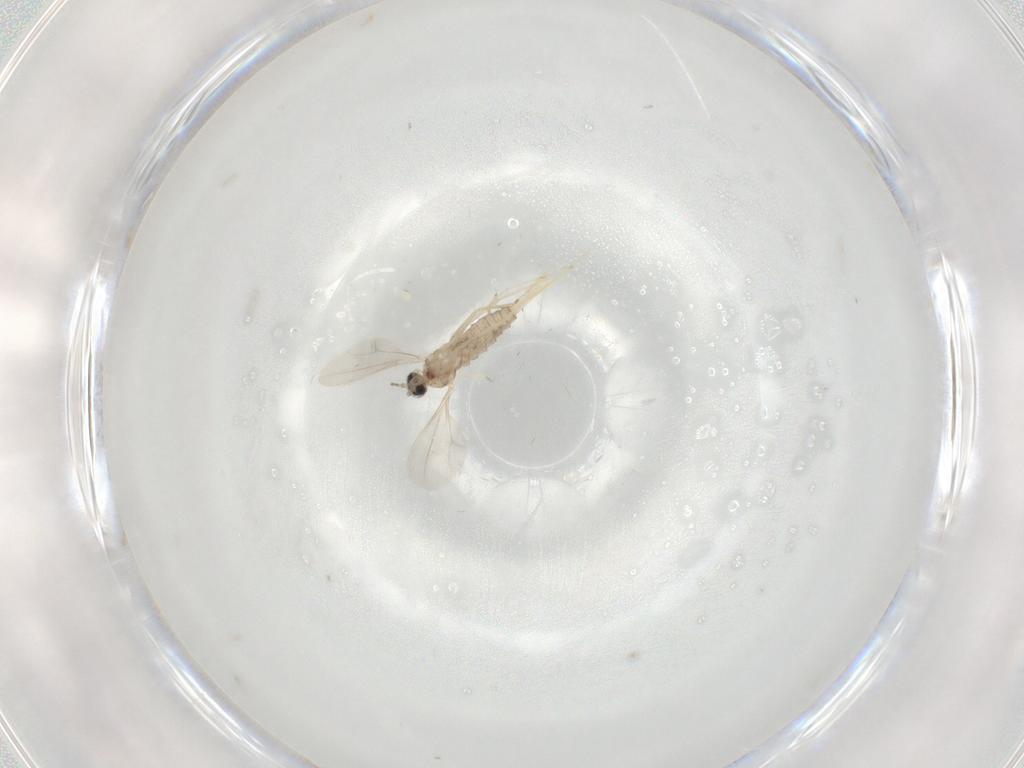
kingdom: Animalia
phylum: Arthropoda
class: Insecta
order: Diptera
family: Cecidomyiidae
